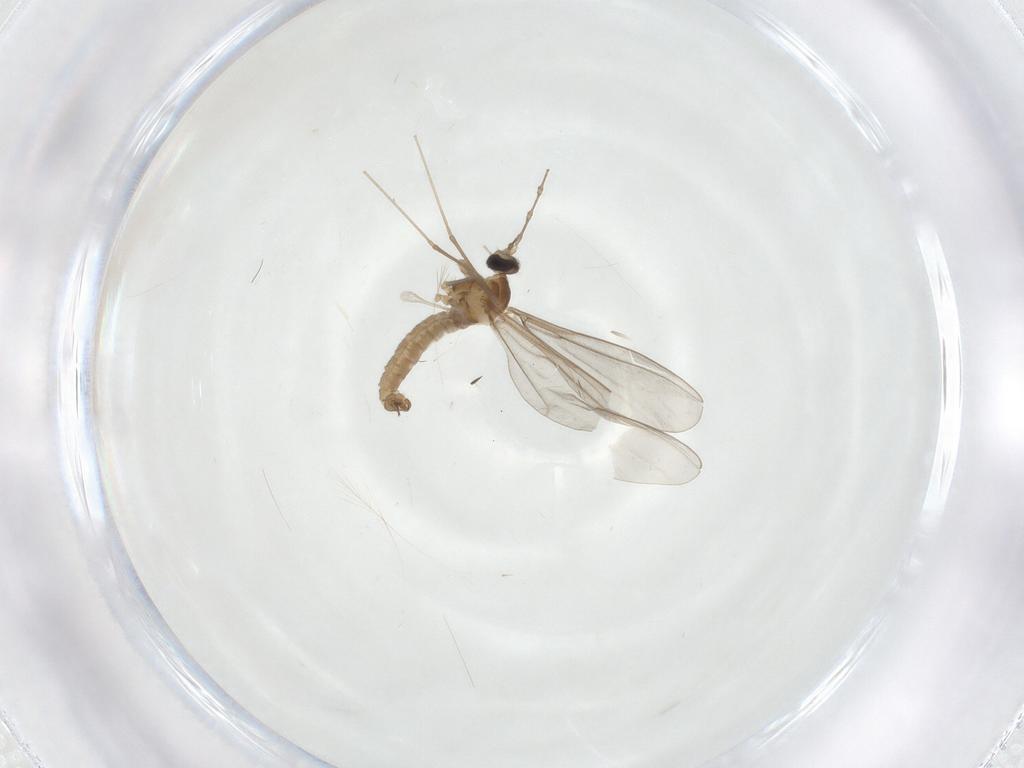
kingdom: Animalia
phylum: Arthropoda
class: Insecta
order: Diptera
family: Cecidomyiidae
